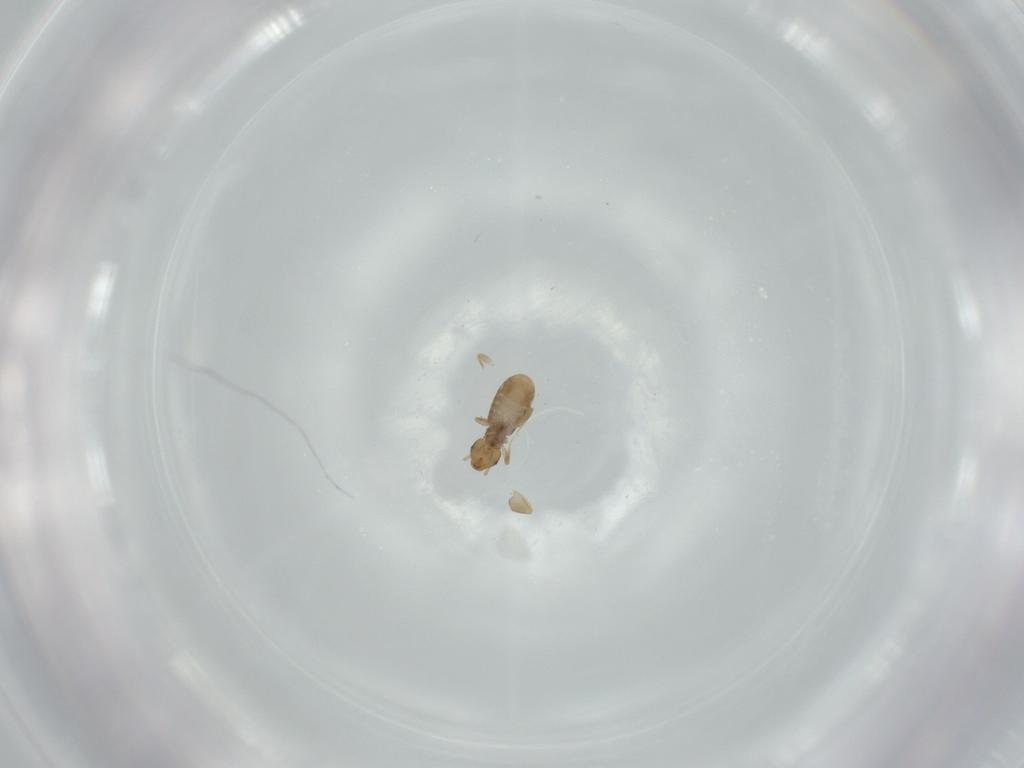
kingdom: Animalia
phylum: Arthropoda
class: Insecta
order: Psocodea
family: Liposcelididae
